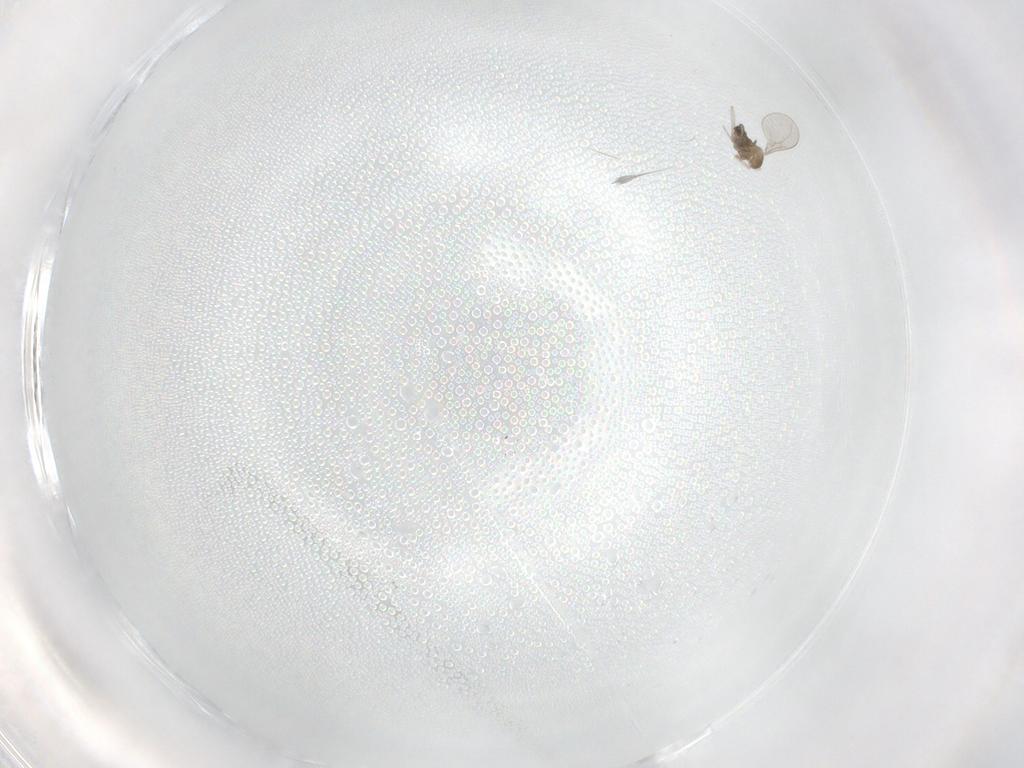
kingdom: Animalia
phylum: Arthropoda
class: Insecta
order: Diptera
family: Cecidomyiidae
